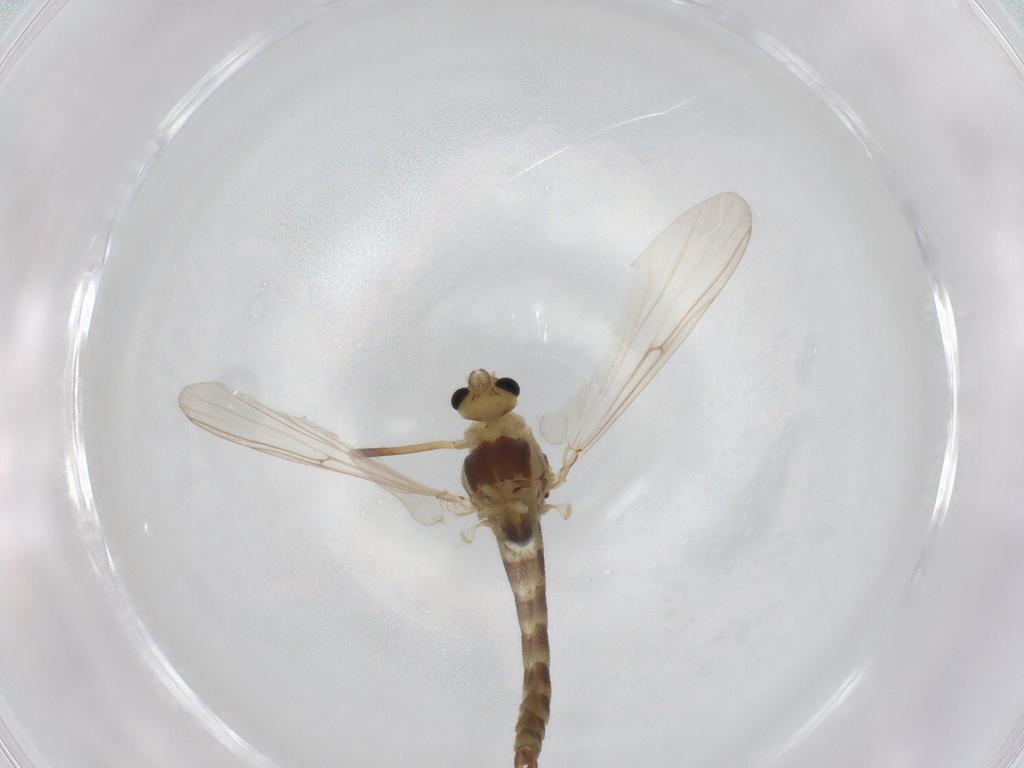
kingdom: Animalia
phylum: Arthropoda
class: Insecta
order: Diptera
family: Chironomidae
